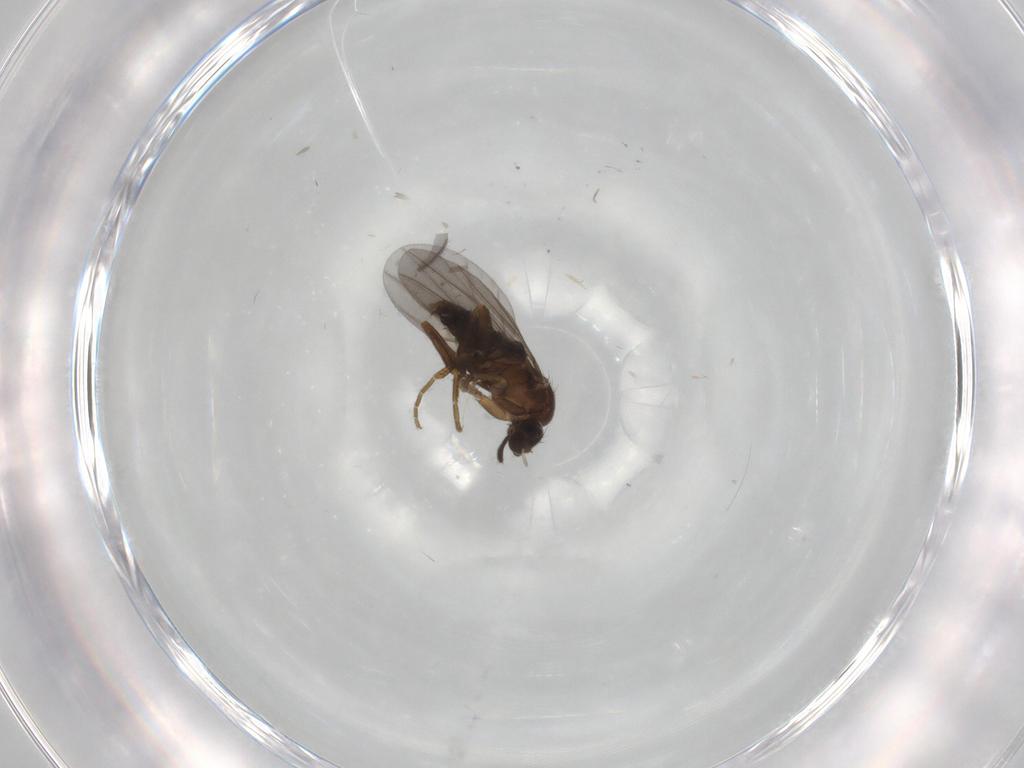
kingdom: Animalia
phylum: Arthropoda
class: Insecta
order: Diptera
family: Phoridae
